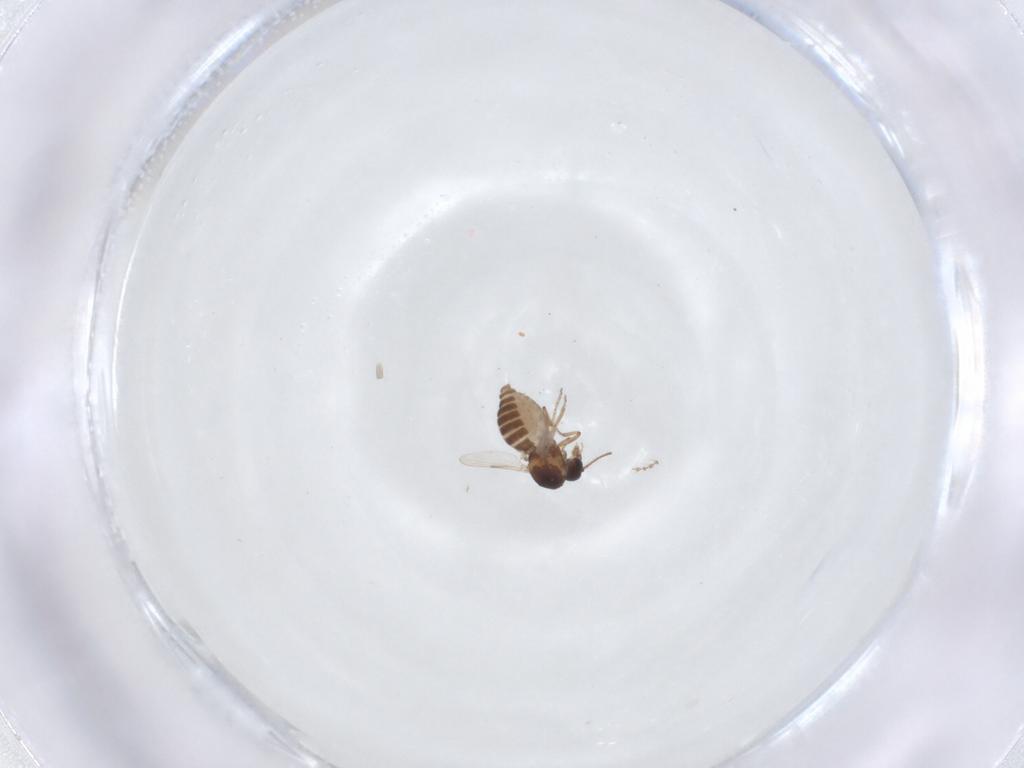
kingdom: Animalia
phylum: Arthropoda
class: Insecta
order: Diptera
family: Ceratopogonidae
